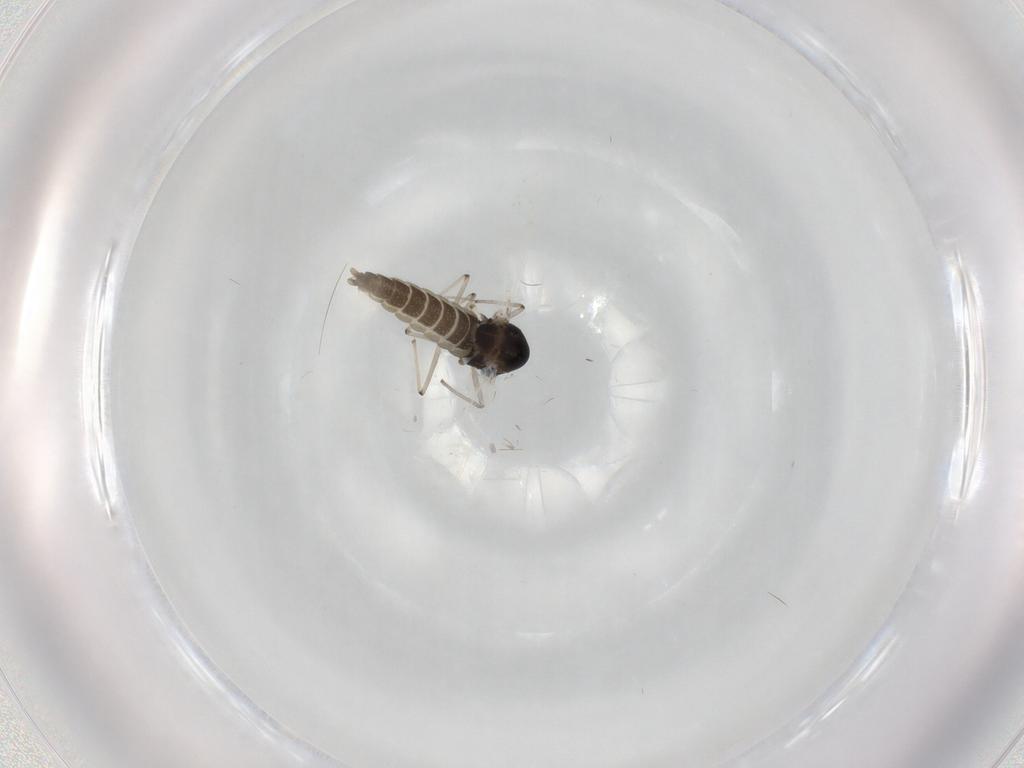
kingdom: Animalia
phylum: Arthropoda
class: Insecta
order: Diptera
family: Chironomidae
